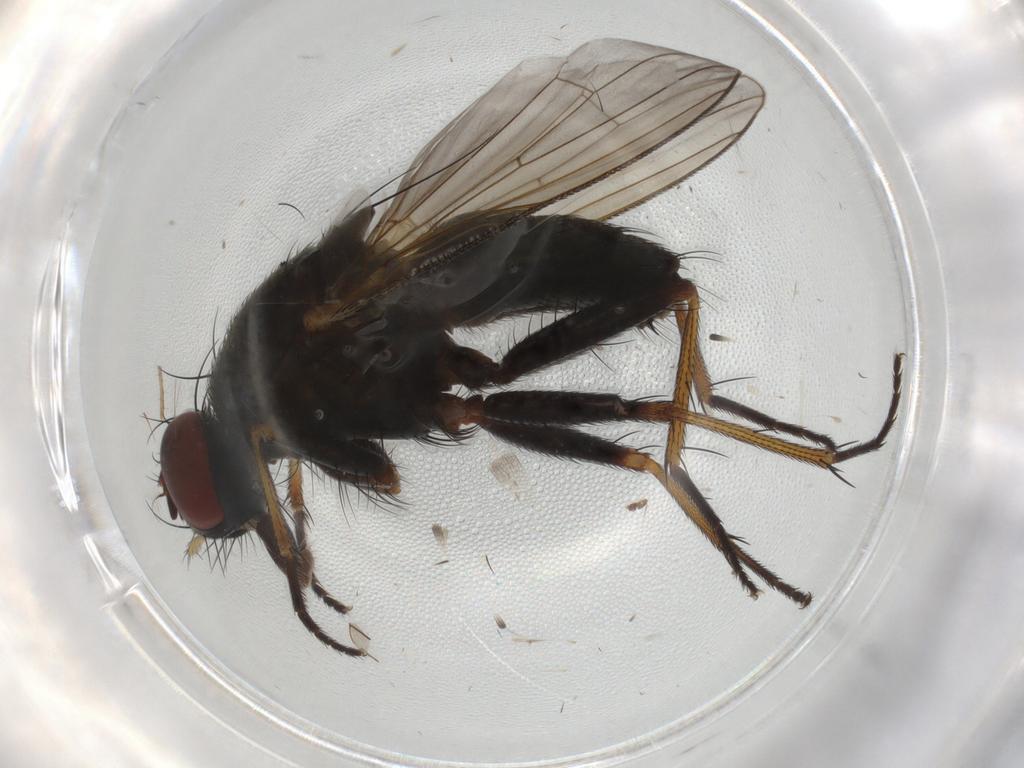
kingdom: Animalia
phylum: Arthropoda
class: Insecta
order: Diptera
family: Muscidae
